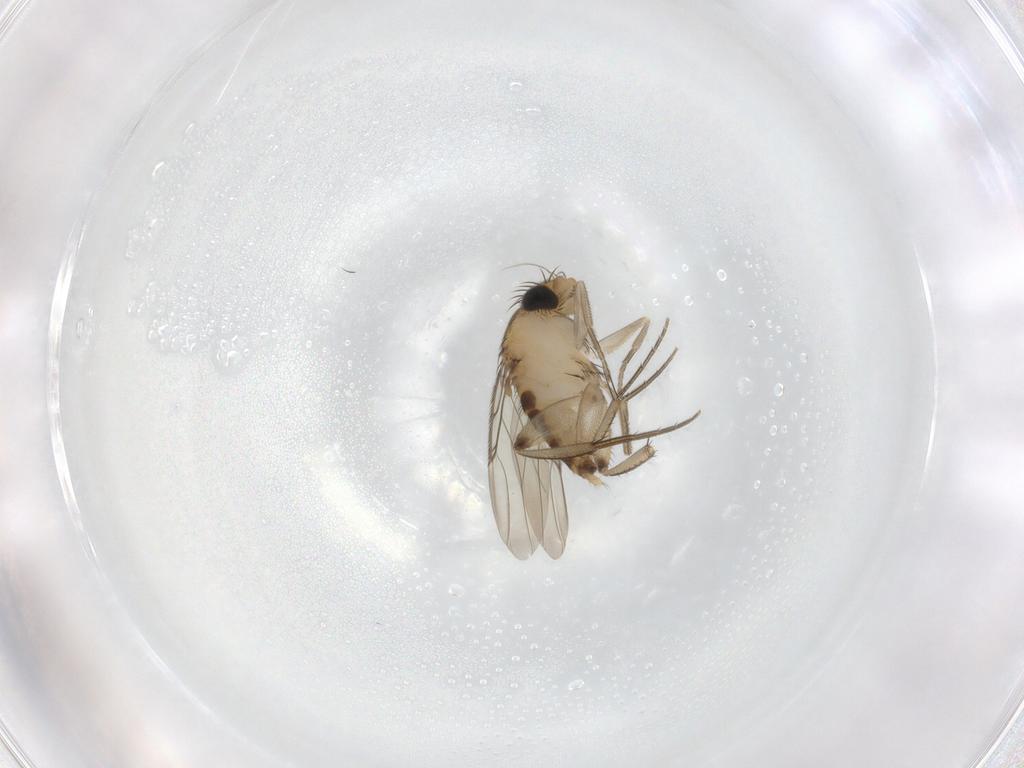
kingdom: Animalia
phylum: Arthropoda
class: Insecta
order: Diptera
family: Phoridae
